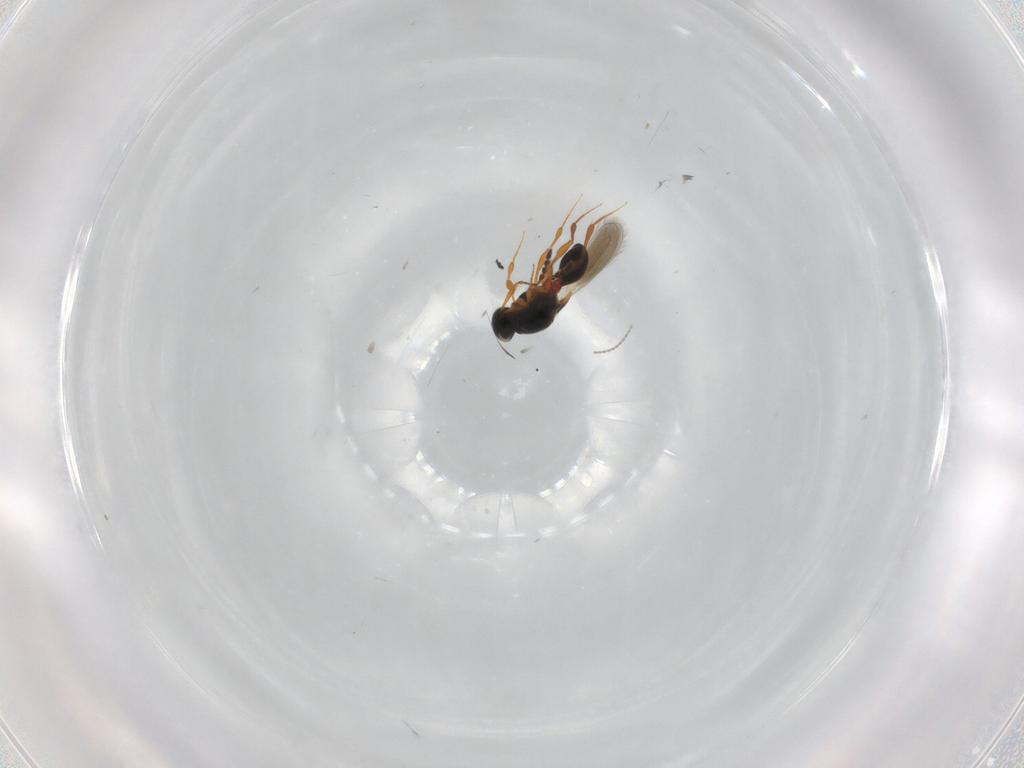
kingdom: Animalia
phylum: Arthropoda
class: Insecta
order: Hymenoptera
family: Platygastridae
